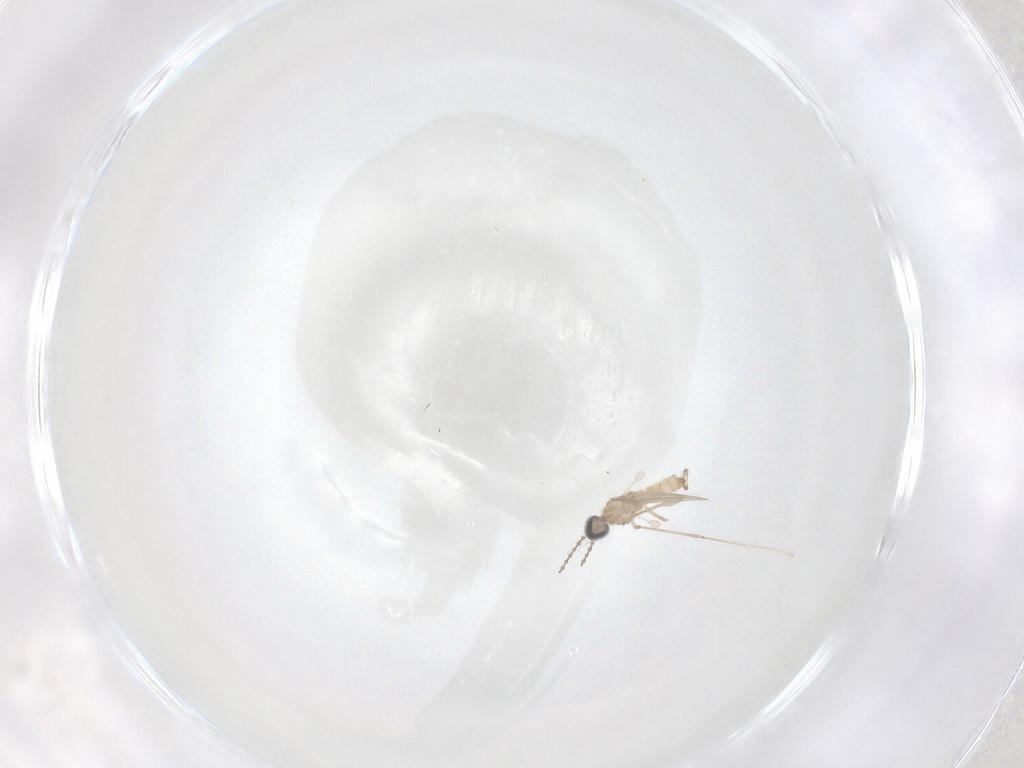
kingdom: Animalia
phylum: Arthropoda
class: Insecta
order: Diptera
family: Cecidomyiidae
